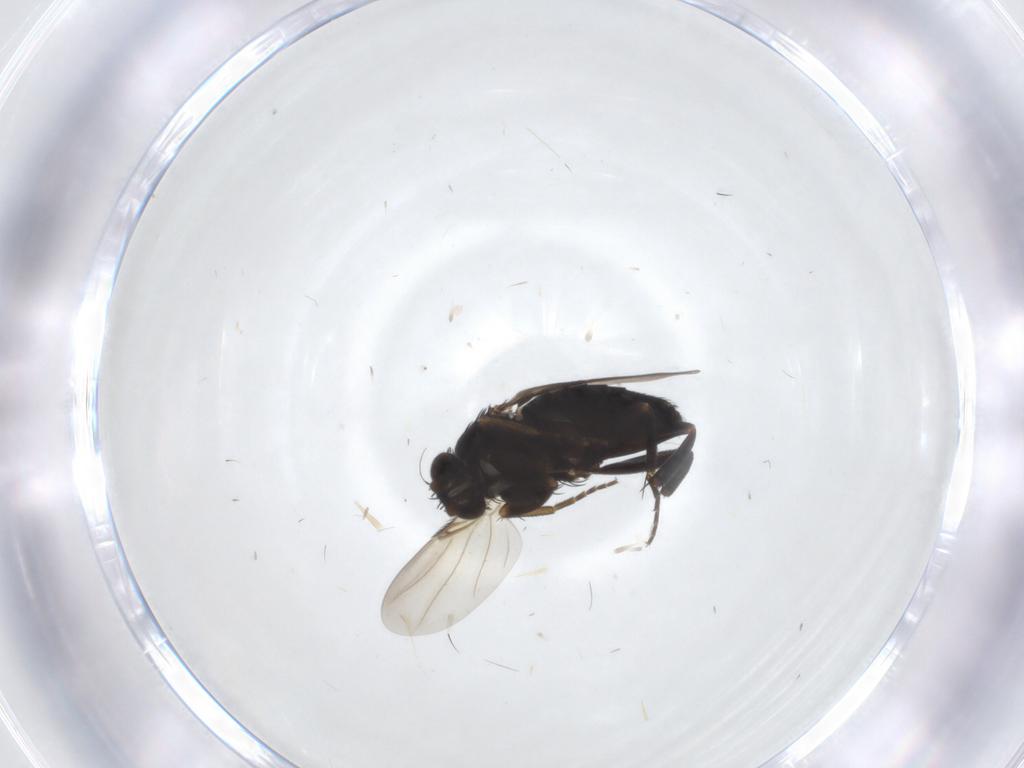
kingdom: Animalia
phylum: Arthropoda
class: Insecta
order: Diptera
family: Phoridae
